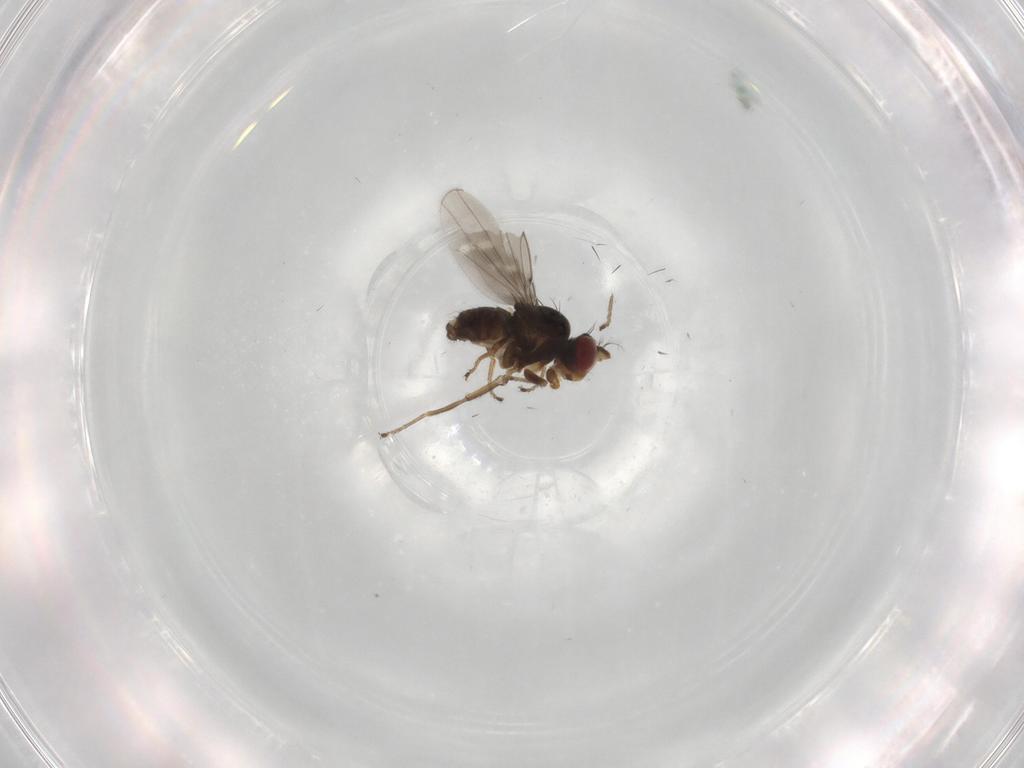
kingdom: Animalia
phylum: Arthropoda
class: Insecta
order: Diptera
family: Ephydridae
